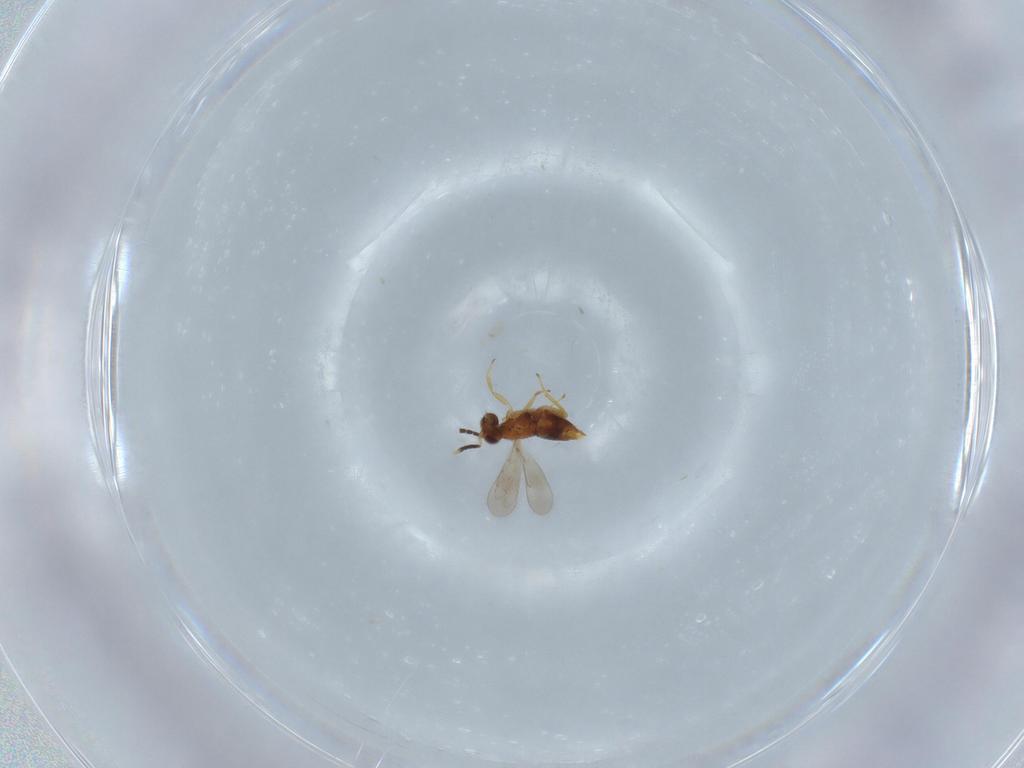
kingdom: Animalia
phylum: Arthropoda
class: Insecta
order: Hymenoptera
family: Aphelinidae
